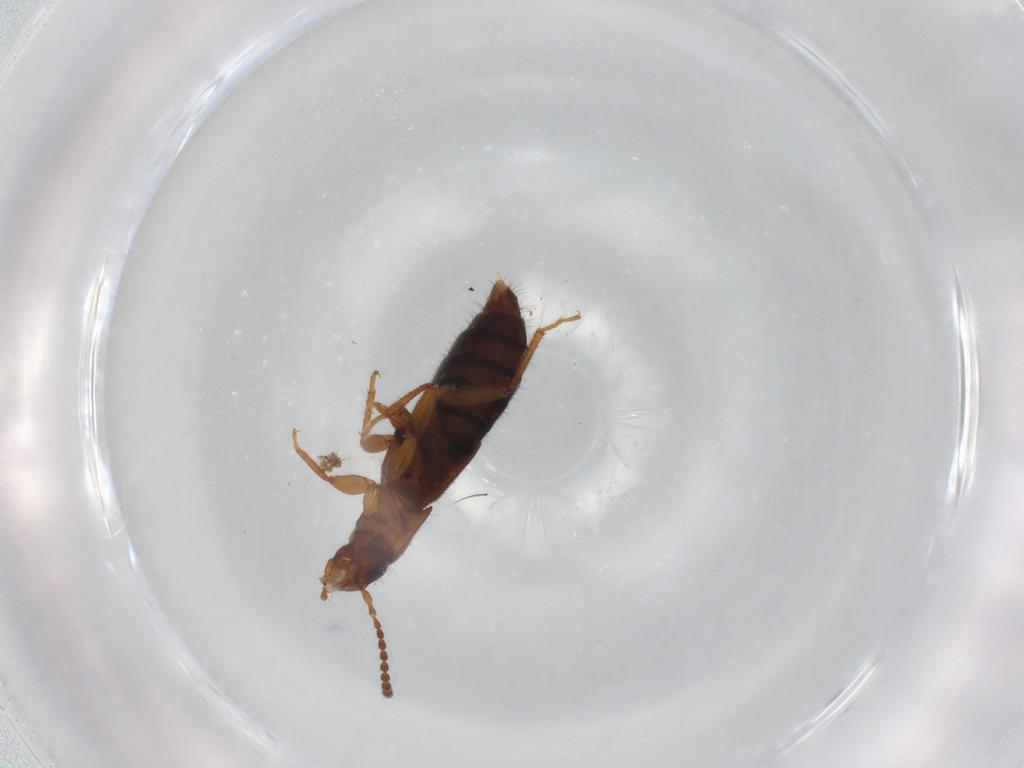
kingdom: Animalia
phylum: Arthropoda
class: Insecta
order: Coleoptera
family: Staphylinidae
